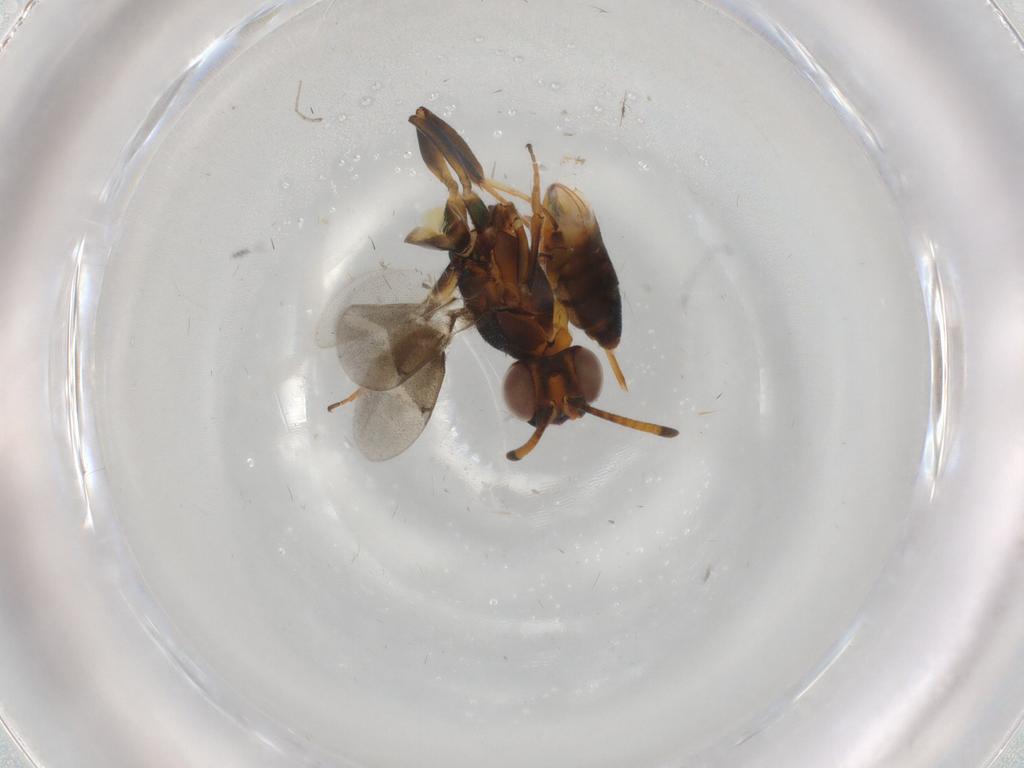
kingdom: Animalia
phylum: Arthropoda
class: Insecta
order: Hymenoptera
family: Eupelmidae
